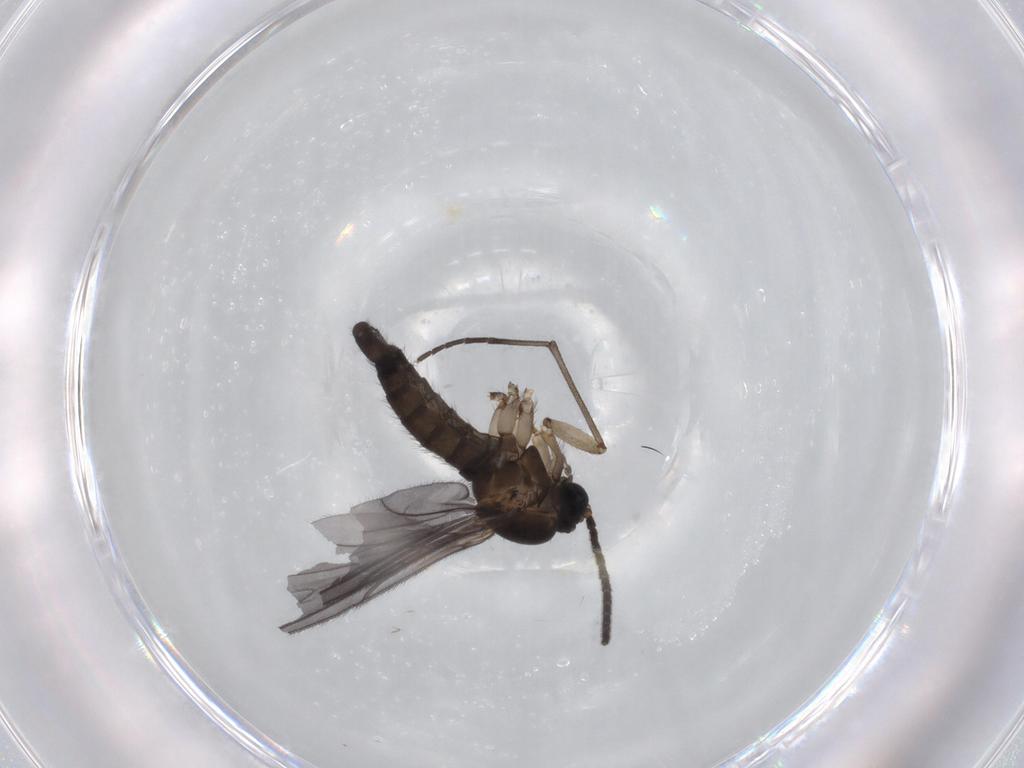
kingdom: Animalia
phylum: Arthropoda
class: Insecta
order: Diptera
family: Sciaridae
